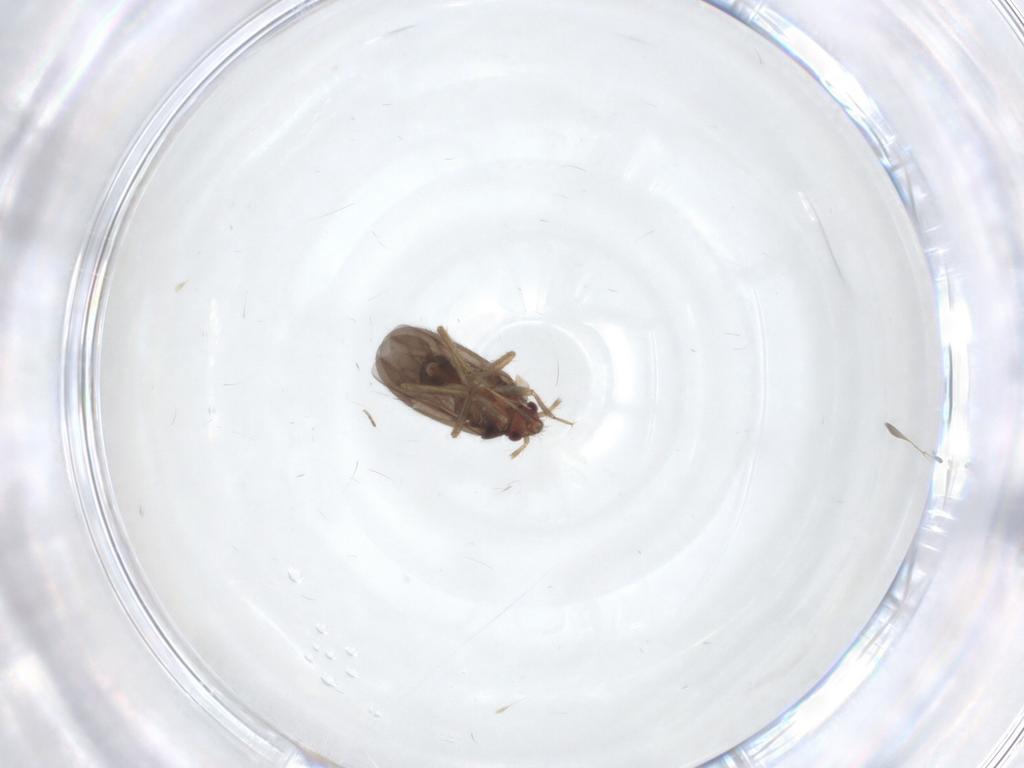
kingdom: Animalia
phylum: Arthropoda
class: Insecta
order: Hemiptera
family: Ceratocombidae
